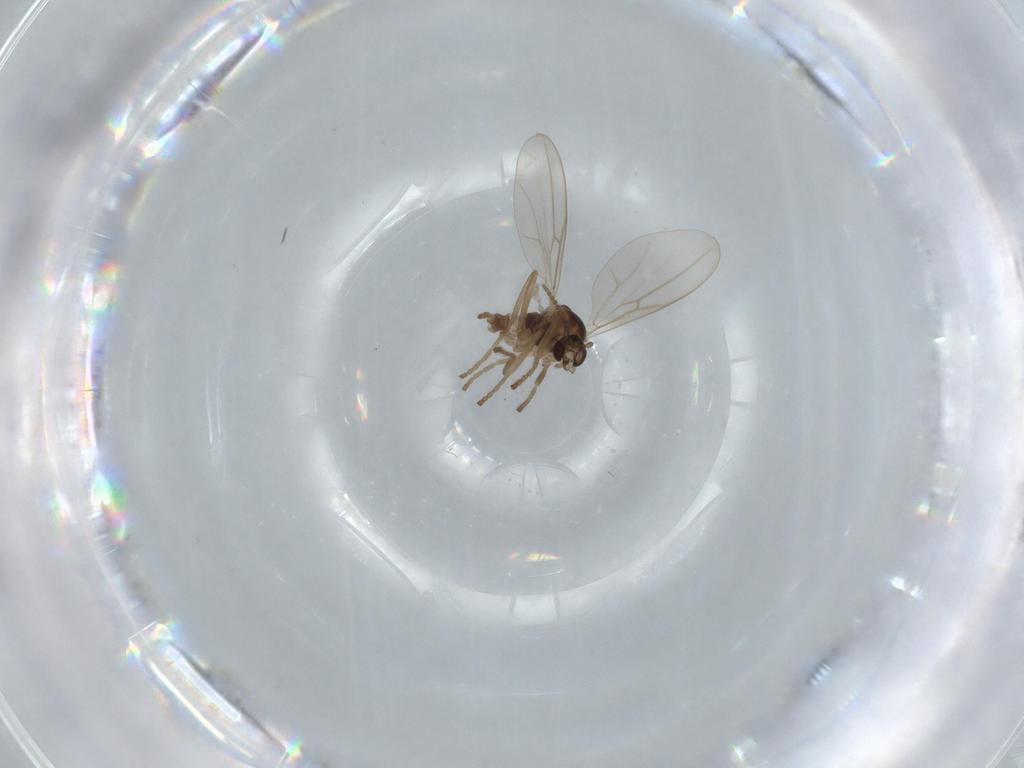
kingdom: Animalia
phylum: Arthropoda
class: Insecta
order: Diptera
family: Cecidomyiidae
